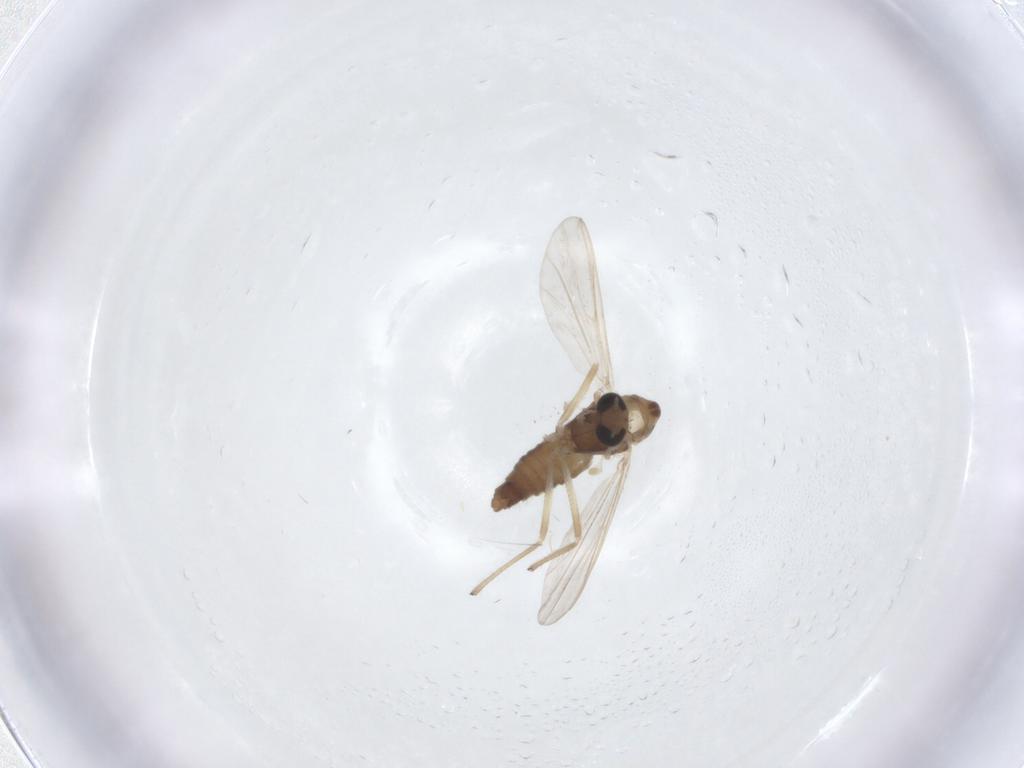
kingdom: Animalia
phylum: Arthropoda
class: Insecta
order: Diptera
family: Chironomidae
